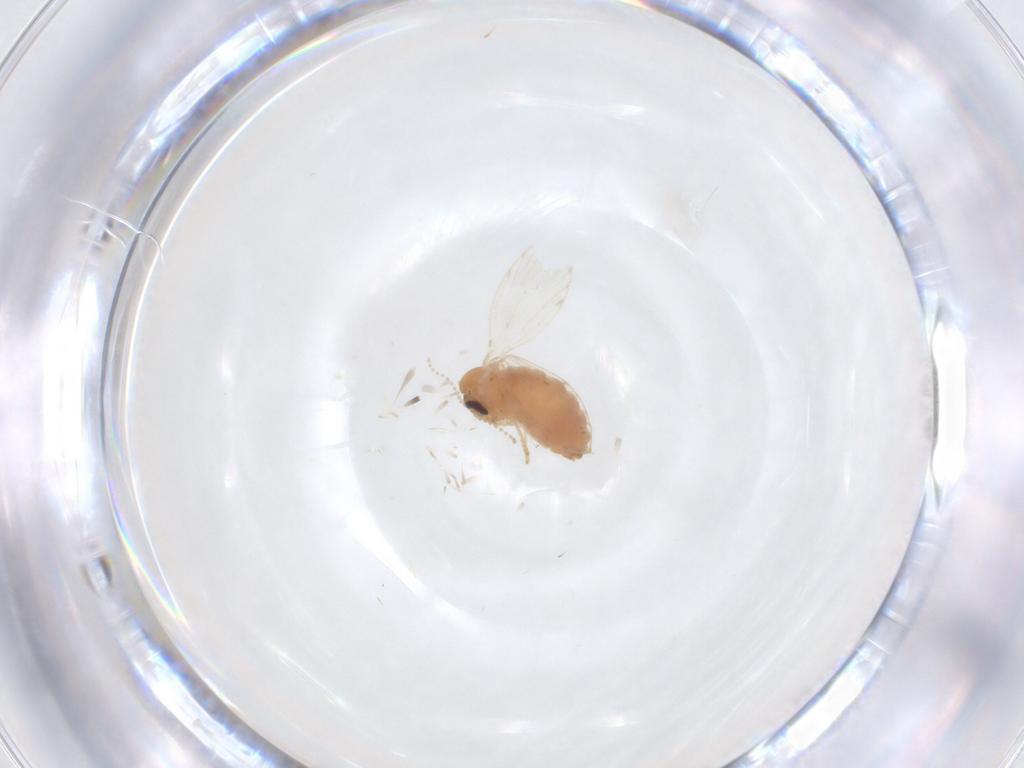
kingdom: Animalia
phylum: Arthropoda
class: Insecta
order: Diptera
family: Psychodidae
